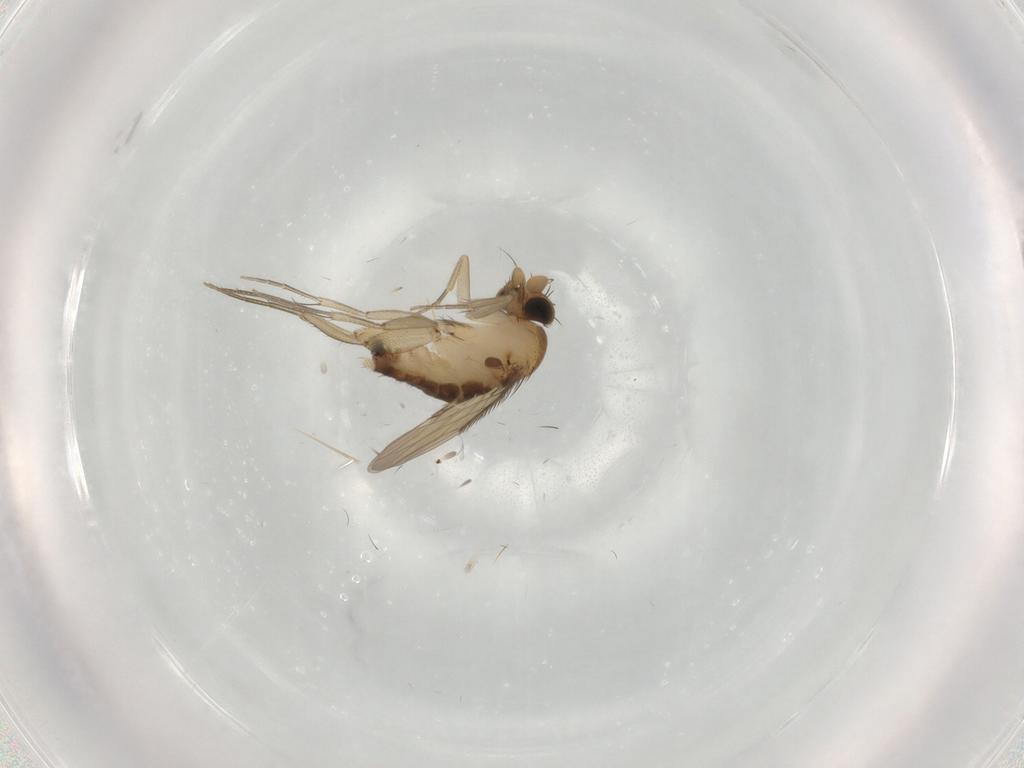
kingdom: Animalia
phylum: Arthropoda
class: Insecta
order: Diptera
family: Phoridae
